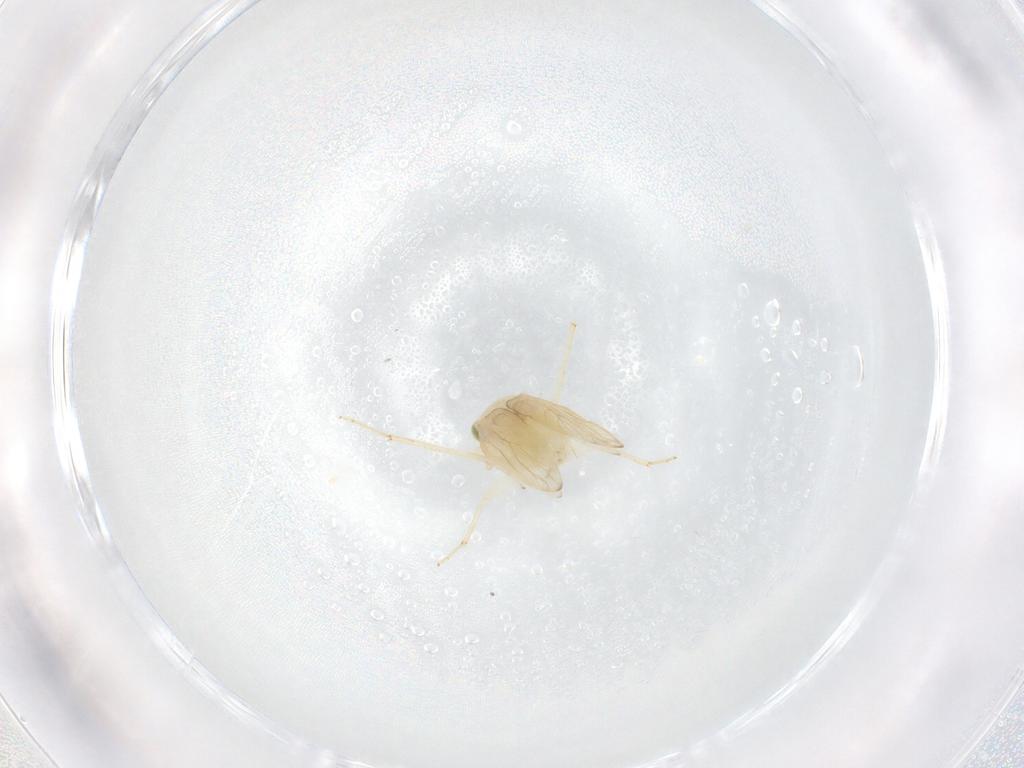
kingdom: Animalia
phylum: Arthropoda
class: Insecta
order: Psocodea
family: Lepidopsocidae
